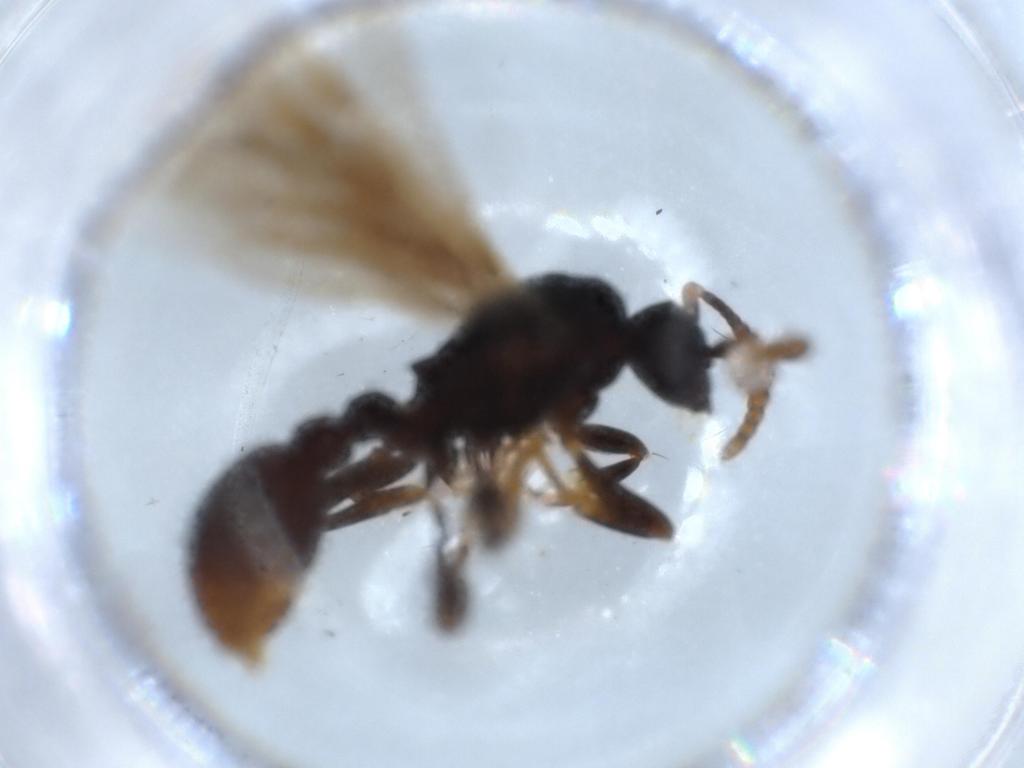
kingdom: Animalia
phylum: Arthropoda
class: Insecta
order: Hymenoptera
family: Formicidae
